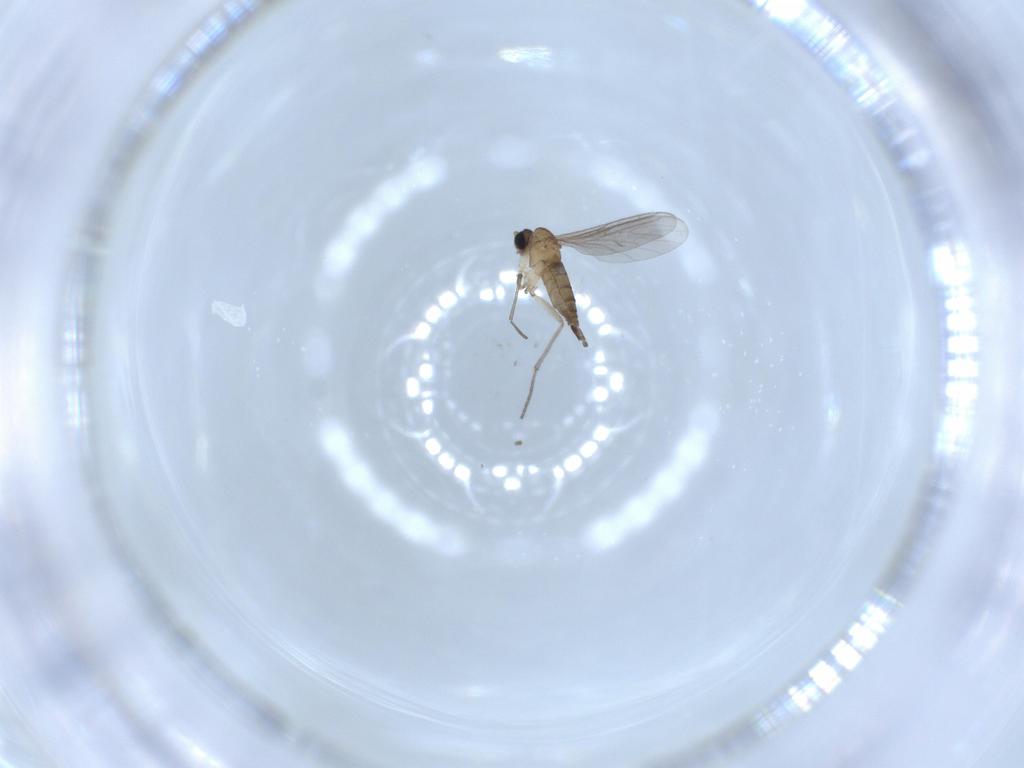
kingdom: Animalia
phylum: Arthropoda
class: Insecta
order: Diptera
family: Sciaridae
